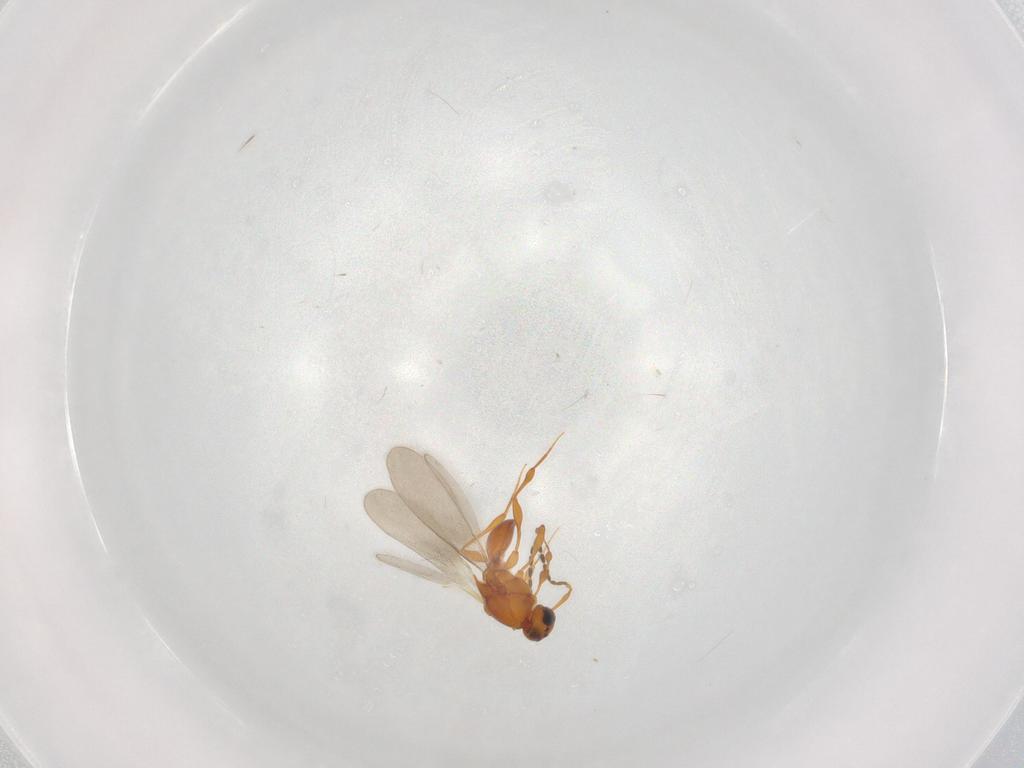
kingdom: Animalia
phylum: Arthropoda
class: Insecta
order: Hymenoptera
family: Platygastridae
